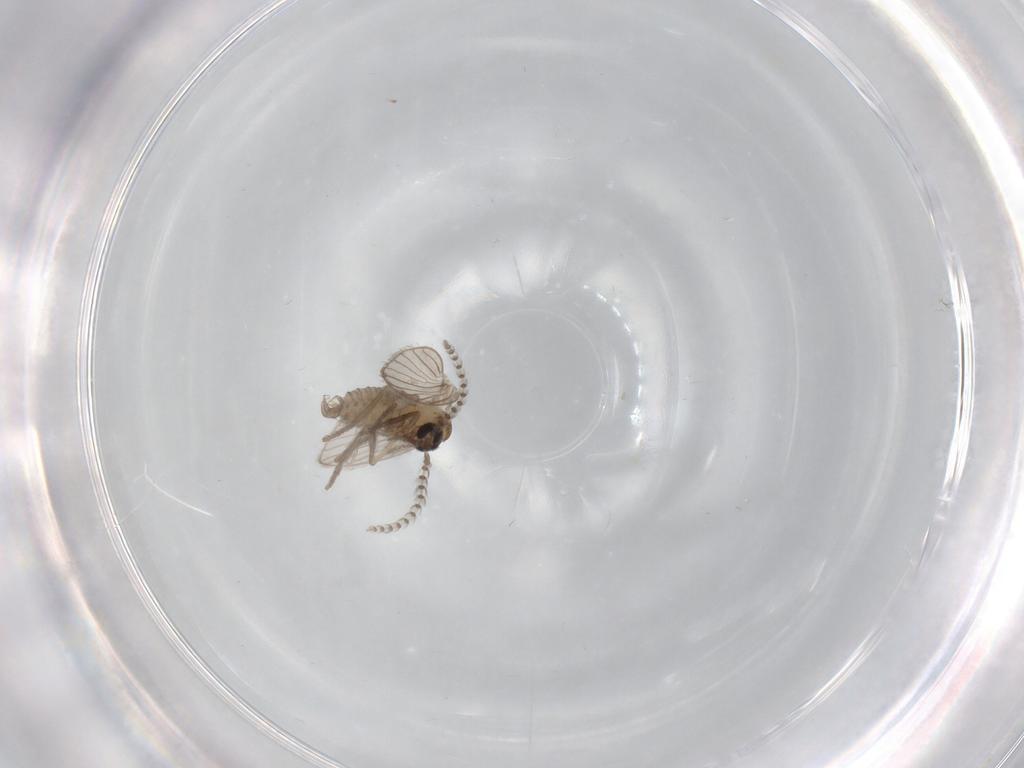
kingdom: Animalia
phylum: Arthropoda
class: Insecta
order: Diptera
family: Psychodidae
